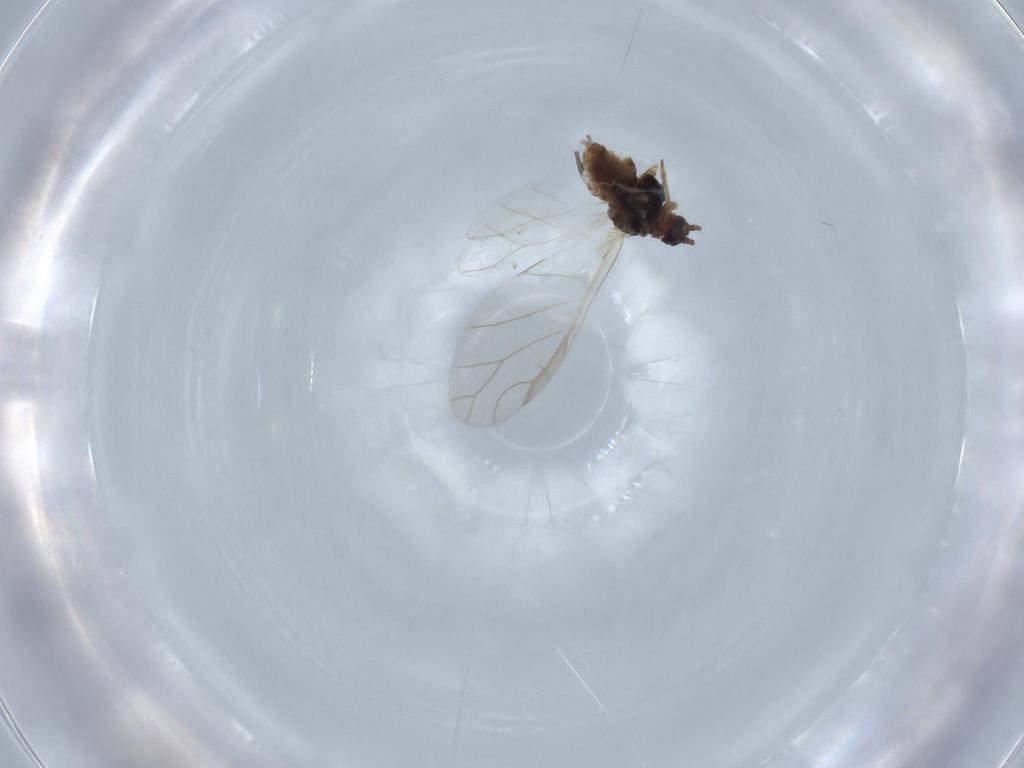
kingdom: Animalia
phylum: Arthropoda
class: Insecta
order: Hemiptera
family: Aphididae
